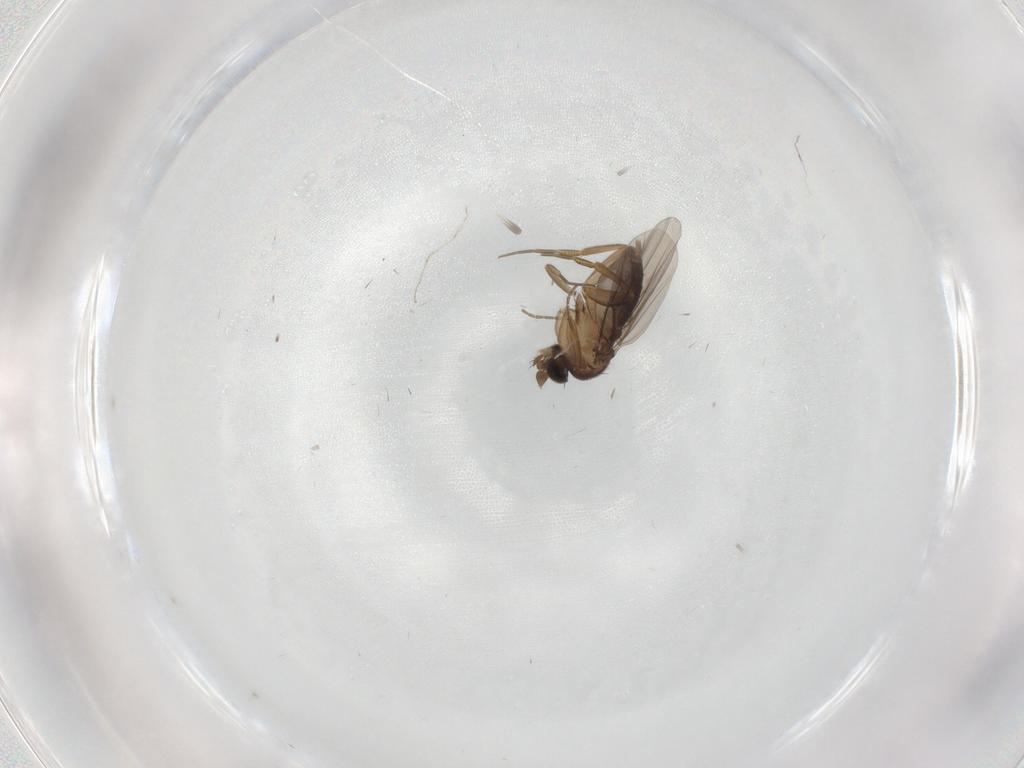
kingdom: Animalia
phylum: Arthropoda
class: Insecta
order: Diptera
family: Phoridae
